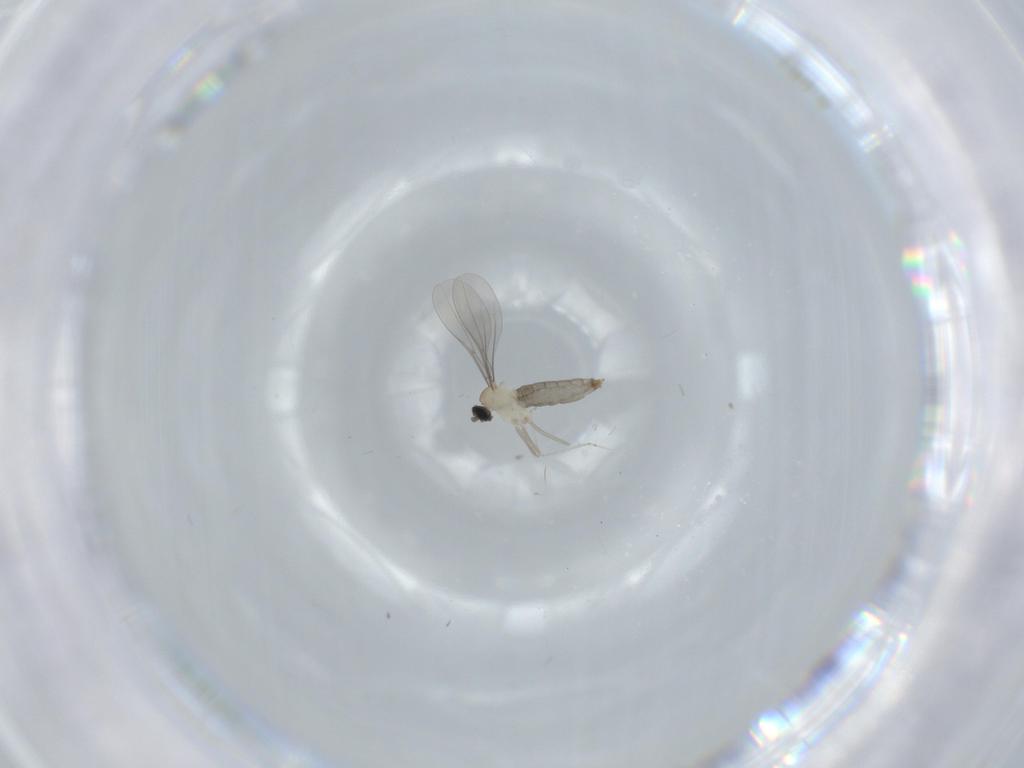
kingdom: Animalia
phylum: Arthropoda
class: Insecta
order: Diptera
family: Cecidomyiidae
